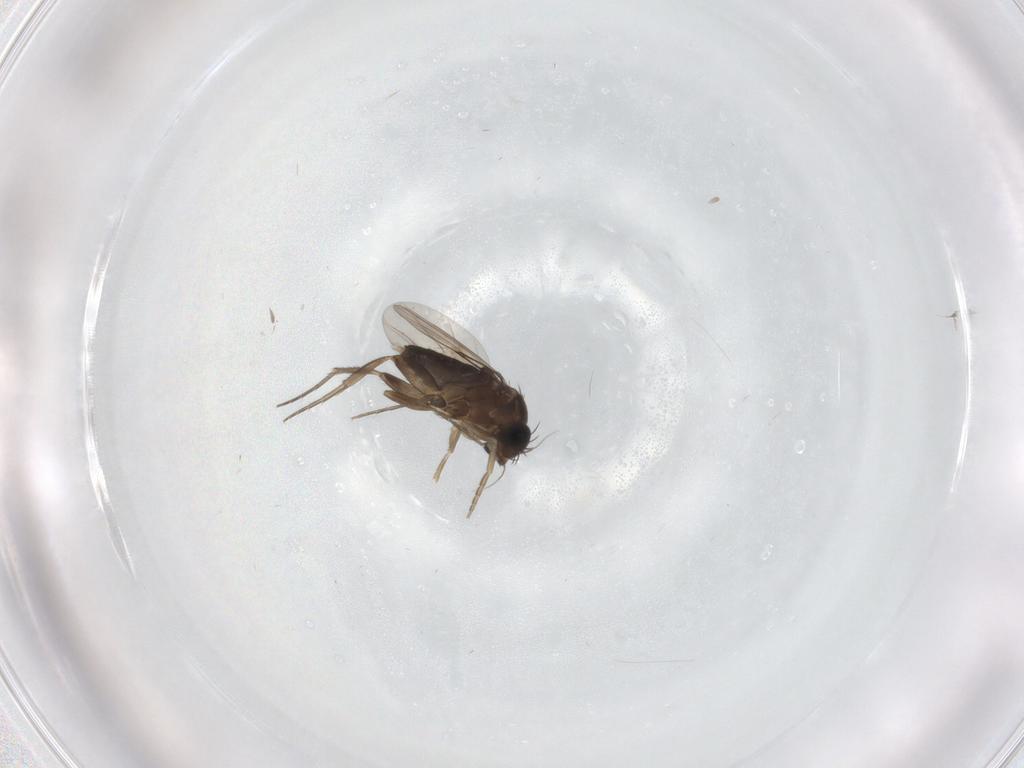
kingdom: Animalia
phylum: Arthropoda
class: Insecta
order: Diptera
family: Phoridae
